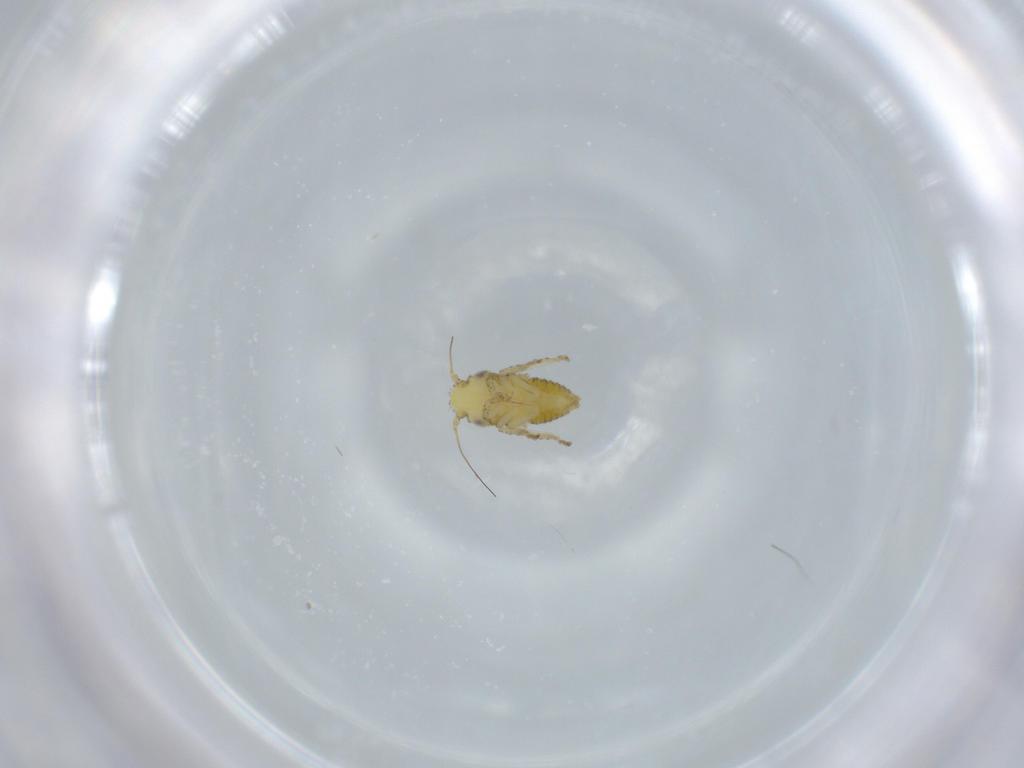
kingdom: Animalia
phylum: Arthropoda
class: Insecta
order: Hemiptera
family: Cicadellidae
